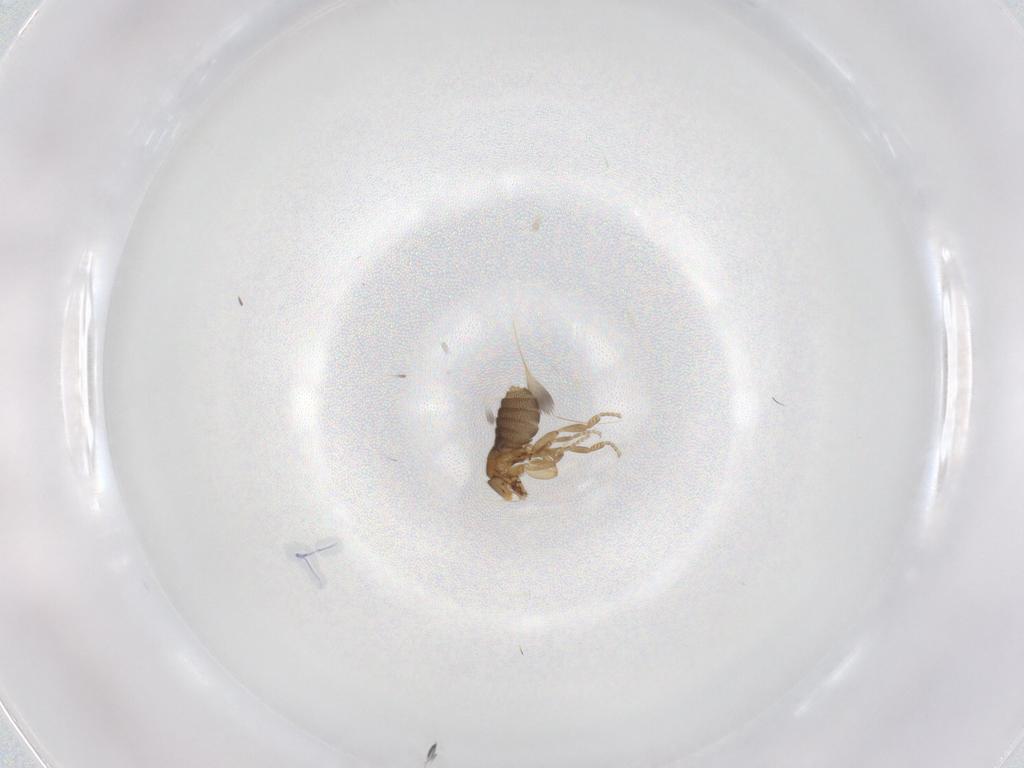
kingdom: Animalia
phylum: Arthropoda
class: Insecta
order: Diptera
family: Chironomidae
